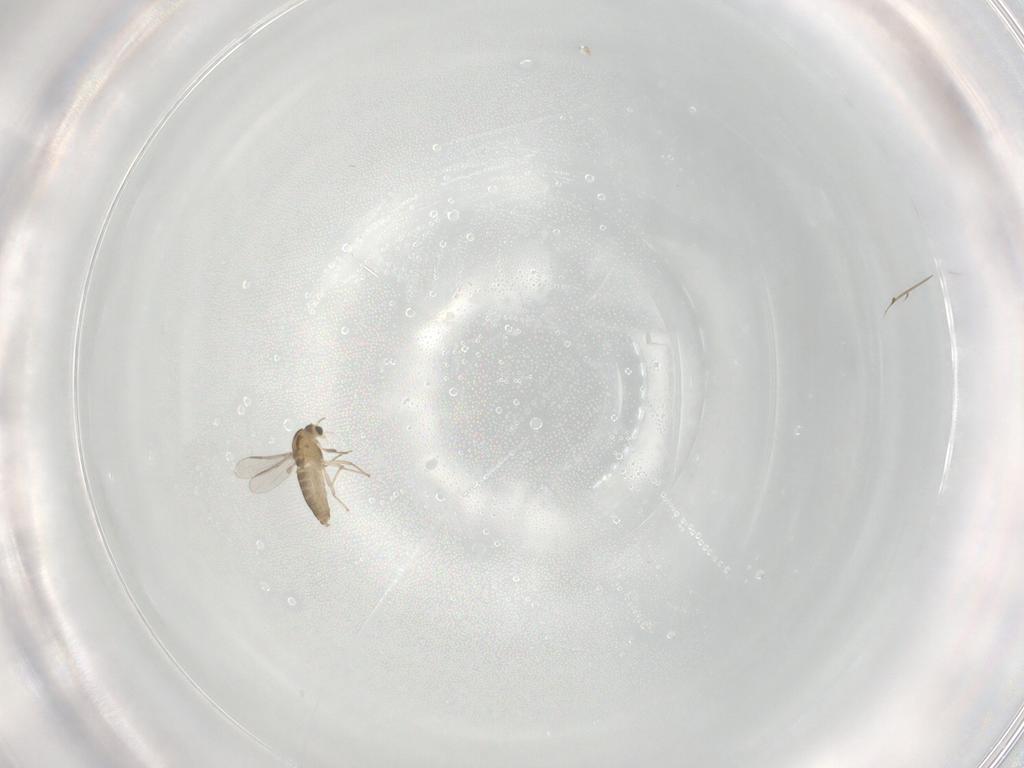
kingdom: Animalia
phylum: Arthropoda
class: Insecta
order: Diptera
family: Chironomidae
